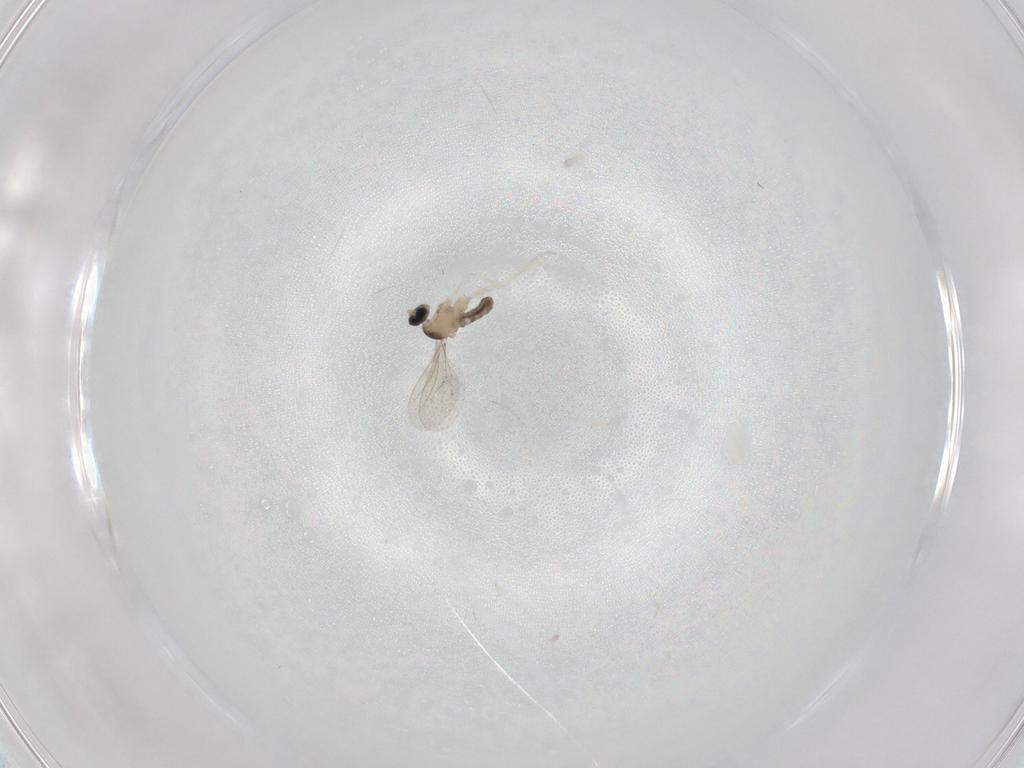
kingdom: Animalia
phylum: Arthropoda
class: Insecta
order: Diptera
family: Cecidomyiidae
